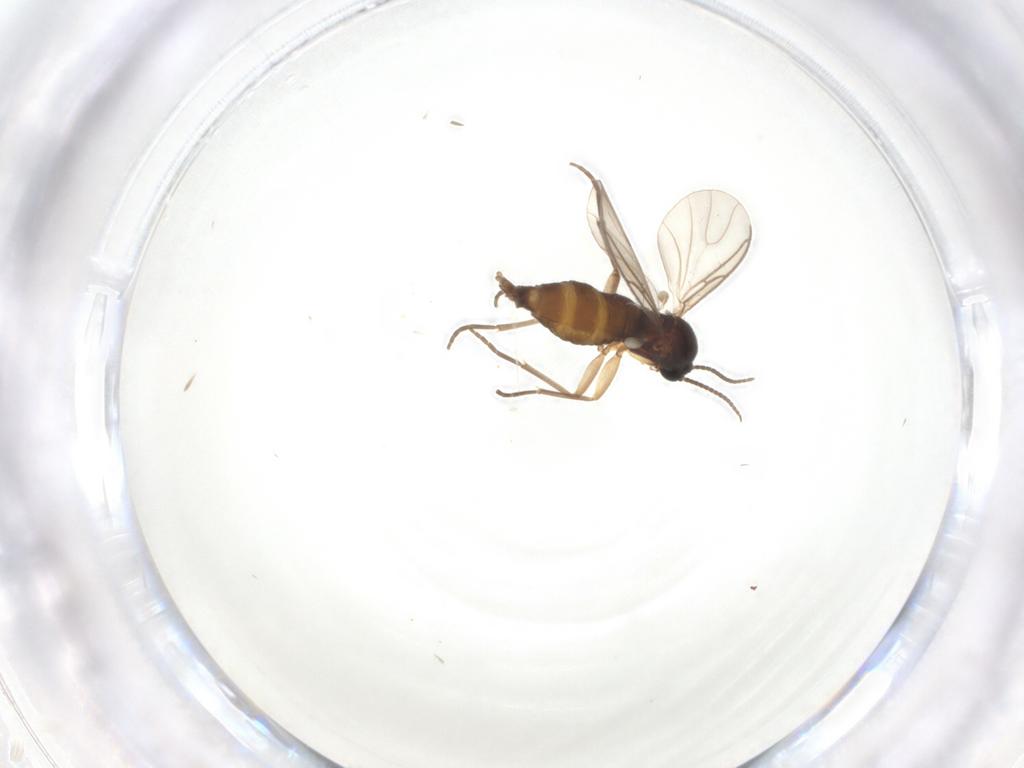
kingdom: Animalia
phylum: Arthropoda
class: Insecta
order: Diptera
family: Sciaridae
